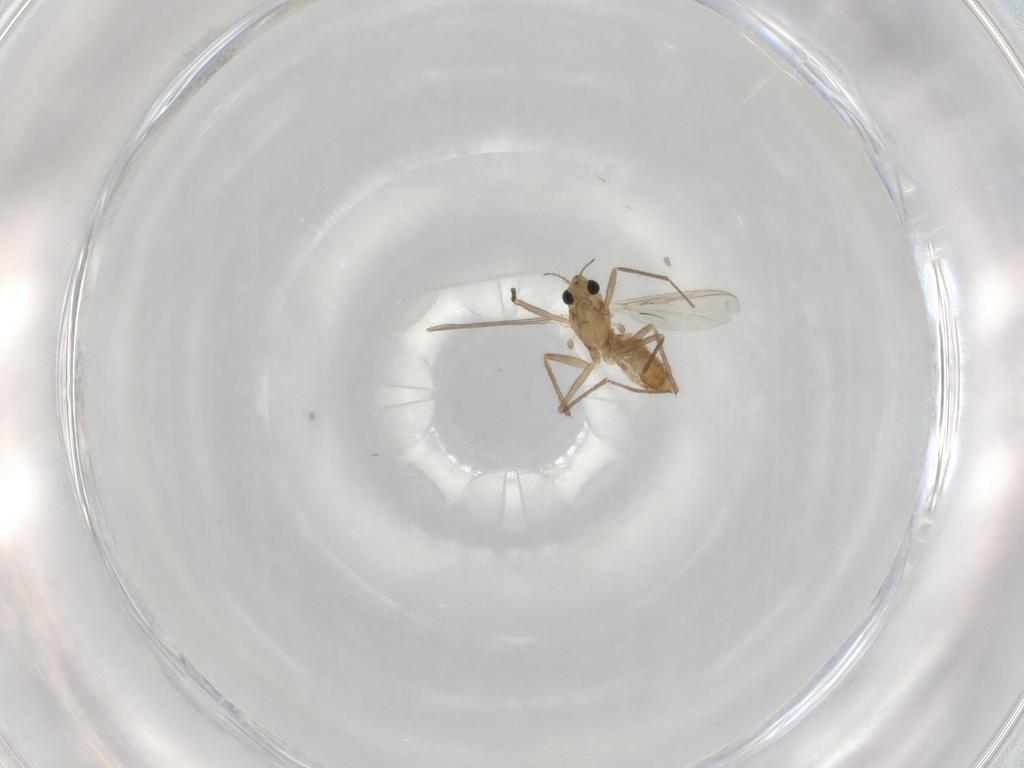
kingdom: Animalia
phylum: Arthropoda
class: Insecta
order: Diptera
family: Chironomidae
